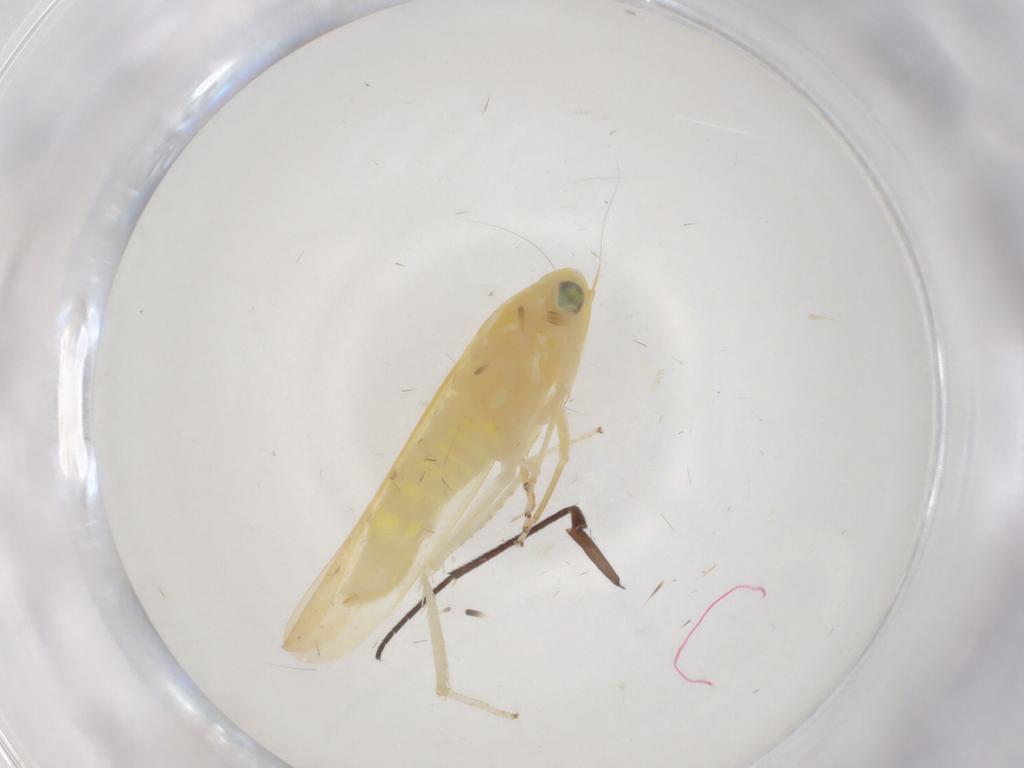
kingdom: Animalia
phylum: Arthropoda
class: Insecta
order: Hemiptera
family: Cicadellidae
